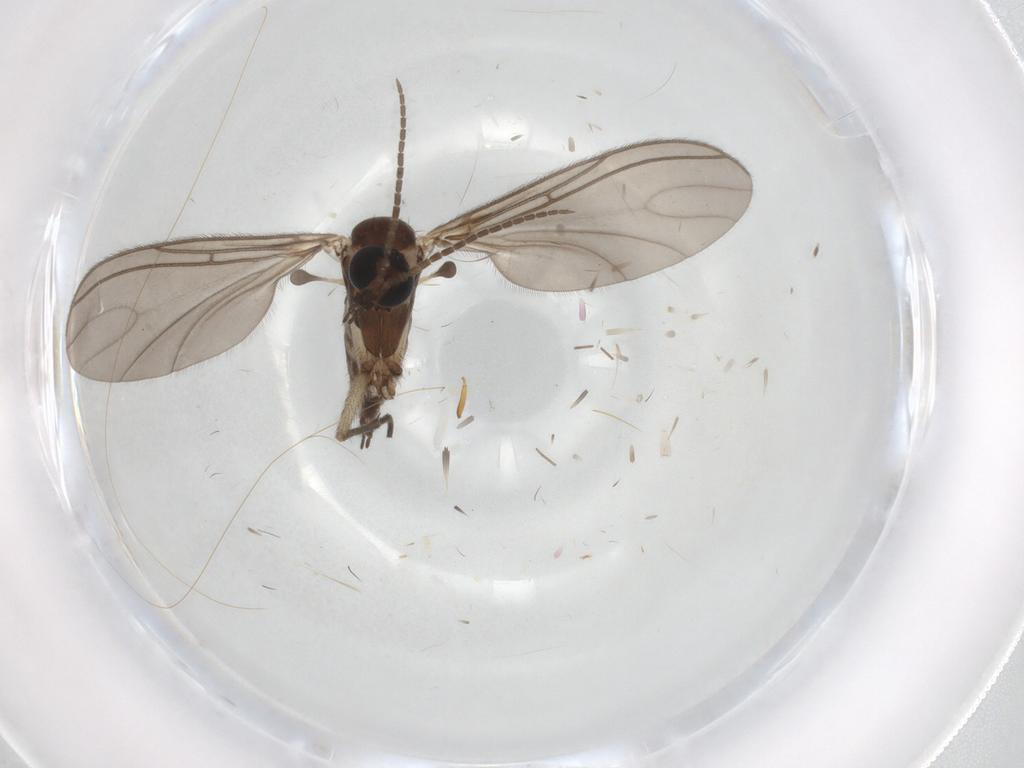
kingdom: Animalia
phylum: Arthropoda
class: Insecta
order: Diptera
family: Sciaridae
